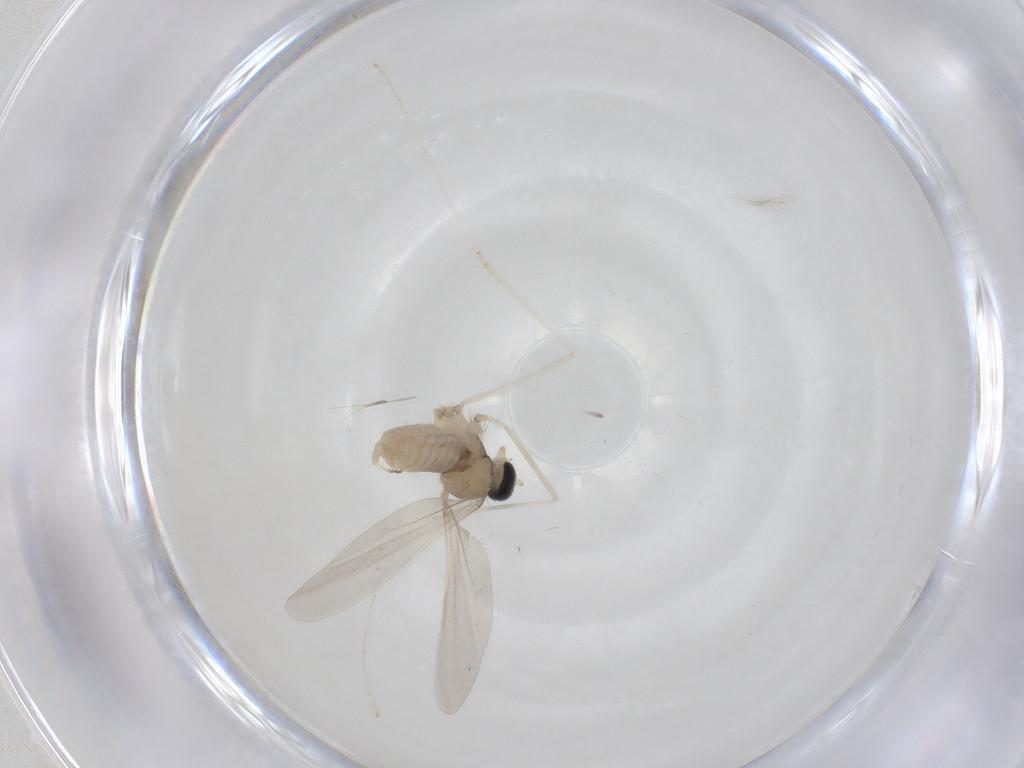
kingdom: Animalia
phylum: Arthropoda
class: Insecta
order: Diptera
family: Cecidomyiidae
